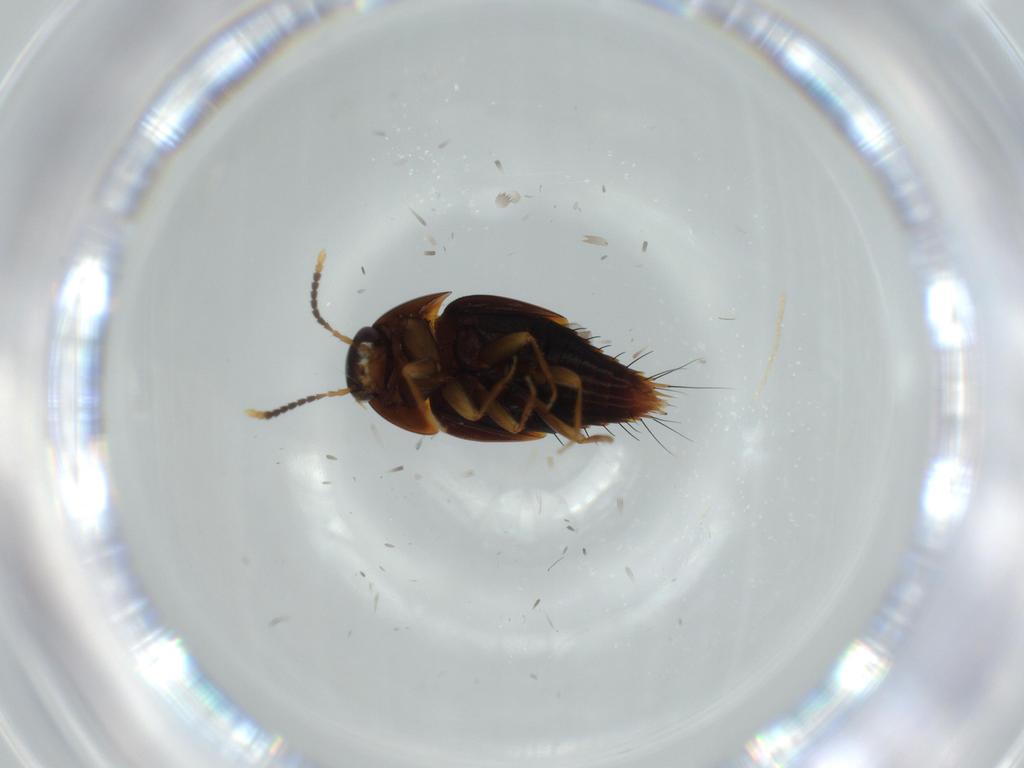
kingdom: Animalia
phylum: Arthropoda
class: Insecta
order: Coleoptera
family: Staphylinidae
